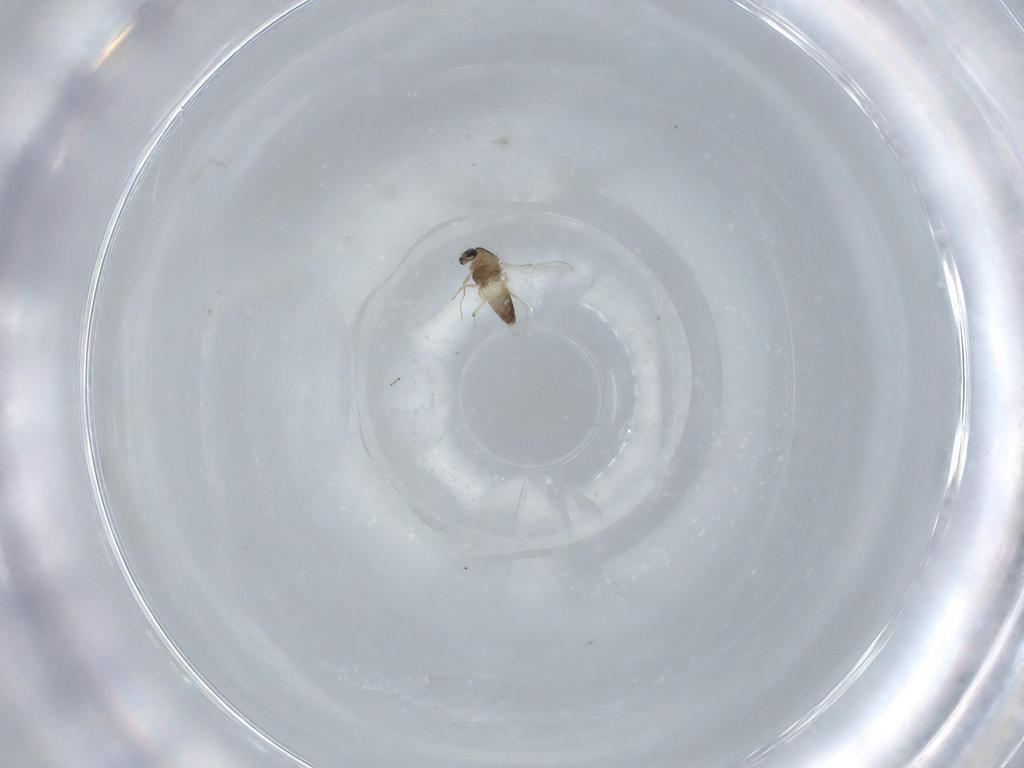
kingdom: Animalia
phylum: Arthropoda
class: Insecta
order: Diptera
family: Chironomidae
